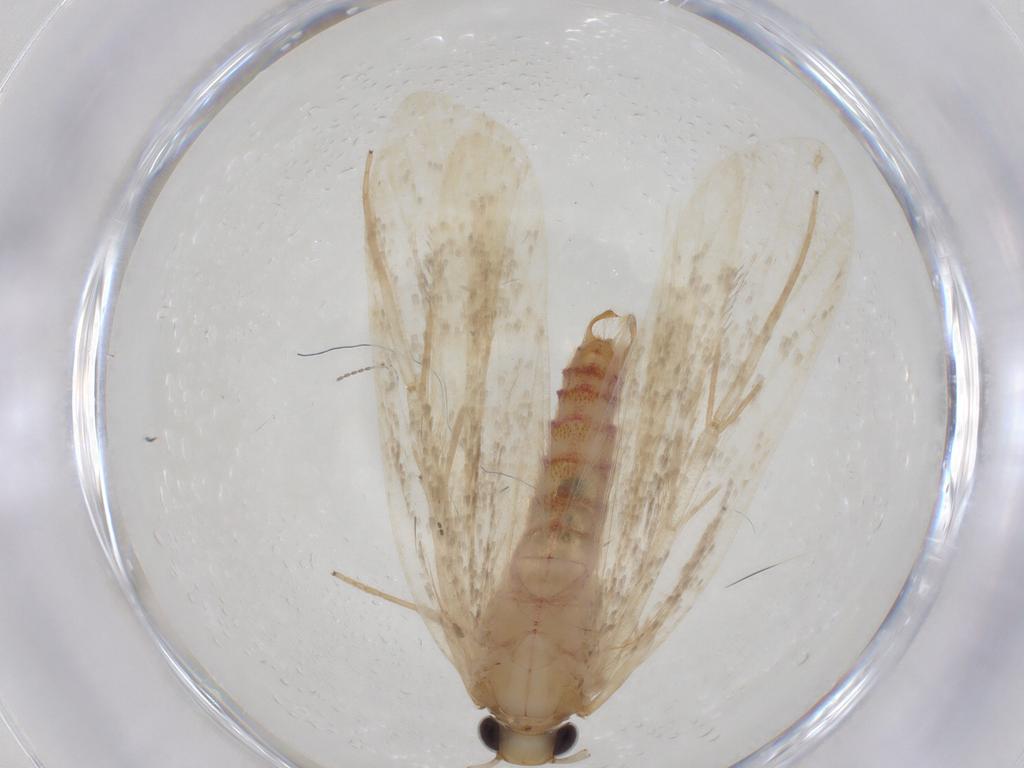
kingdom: Animalia
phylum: Arthropoda
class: Insecta
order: Lepidoptera
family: Lecithoceridae
